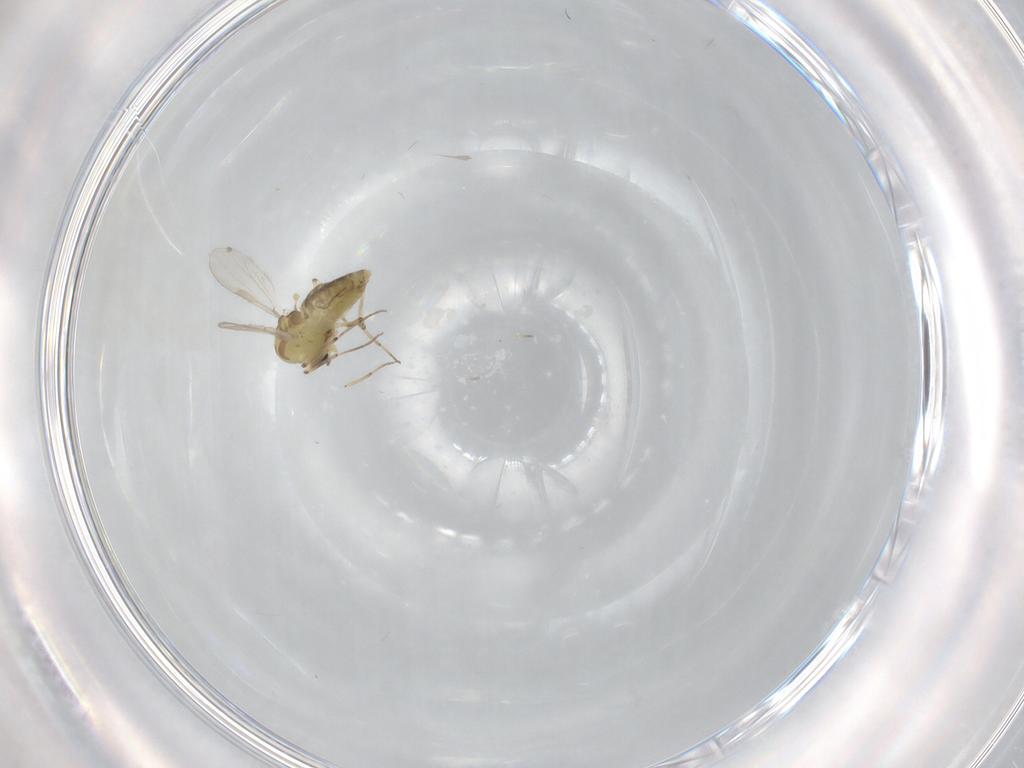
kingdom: Animalia
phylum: Arthropoda
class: Insecta
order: Diptera
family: Chironomidae
